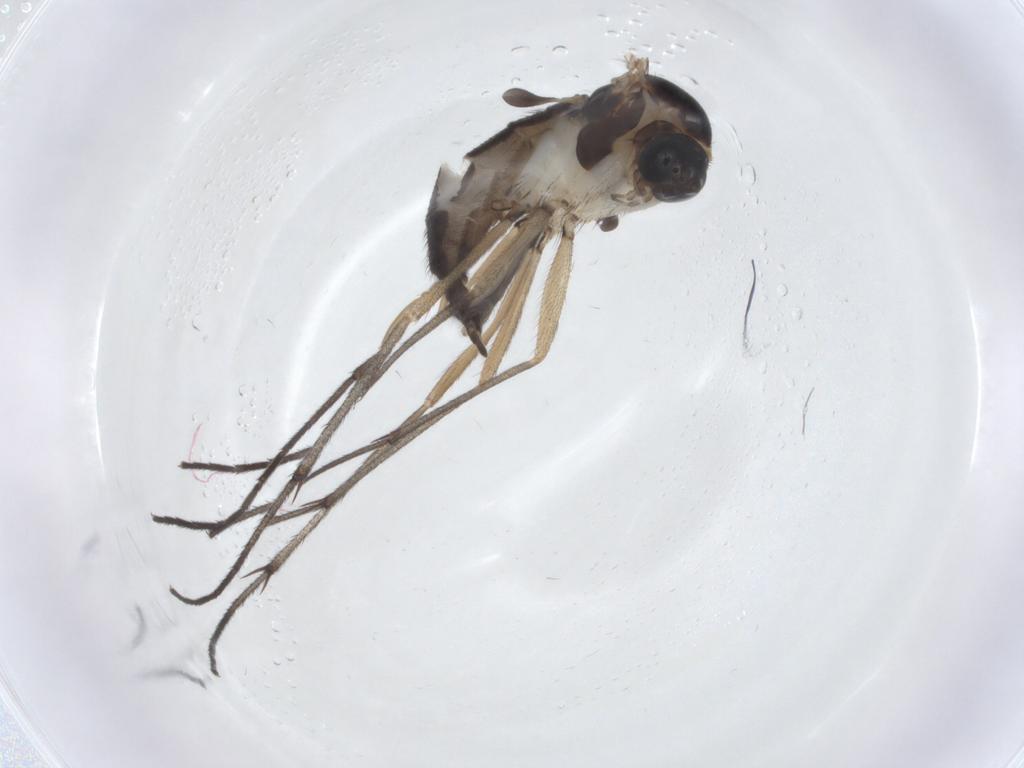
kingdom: Animalia
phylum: Arthropoda
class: Insecta
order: Diptera
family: Sciaridae
